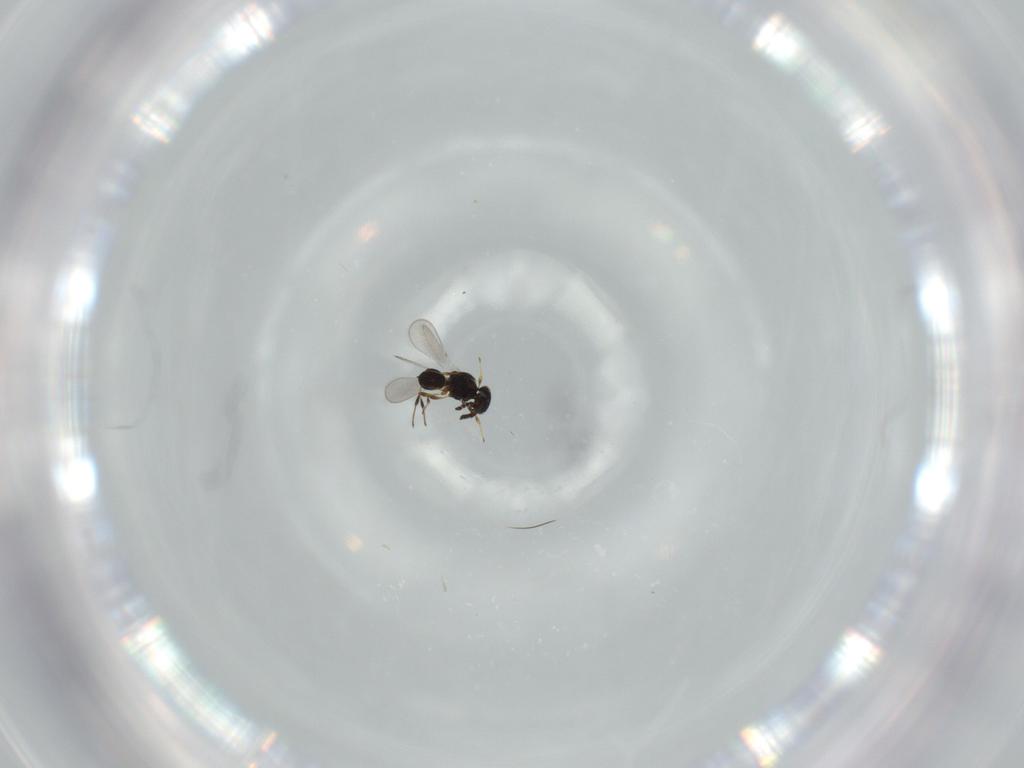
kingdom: Animalia
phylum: Arthropoda
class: Insecta
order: Hymenoptera
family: Platygastridae
